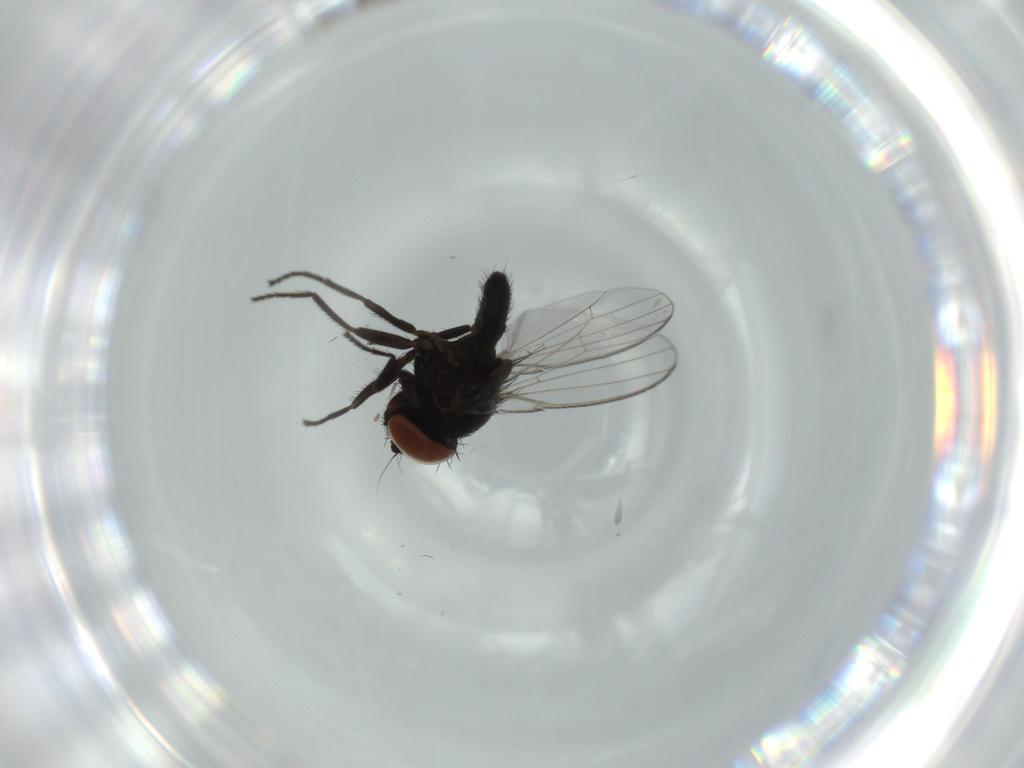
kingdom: Animalia
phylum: Arthropoda
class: Insecta
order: Diptera
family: Milichiidae
